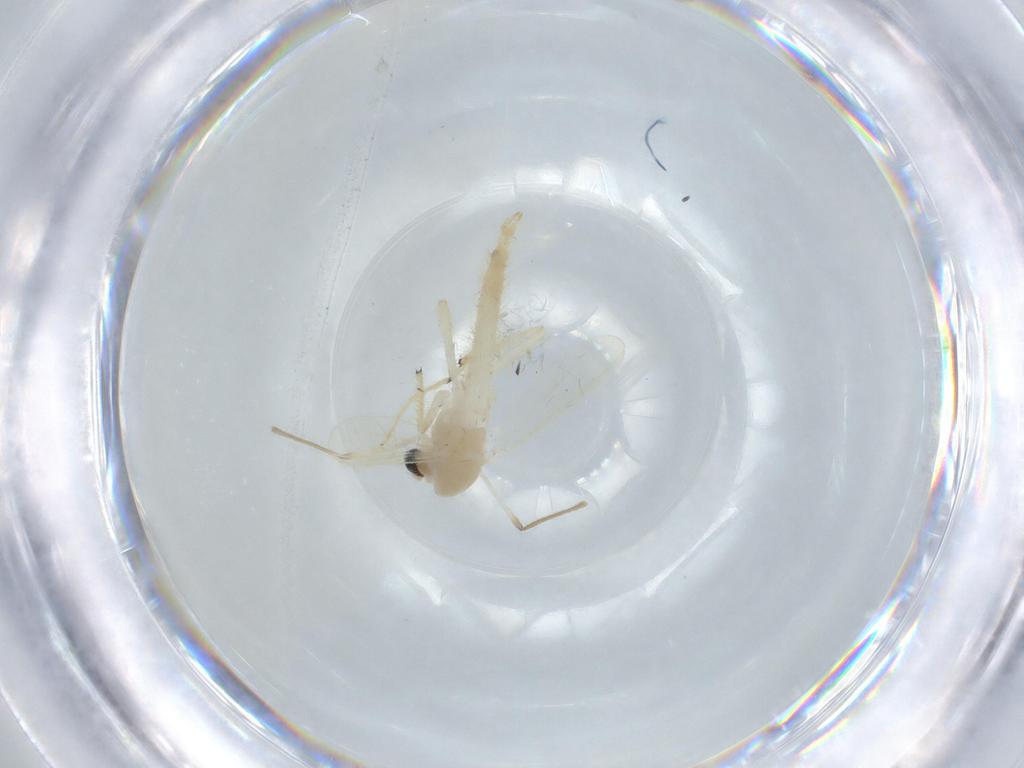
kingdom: Animalia
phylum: Arthropoda
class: Insecta
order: Diptera
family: Chironomidae
